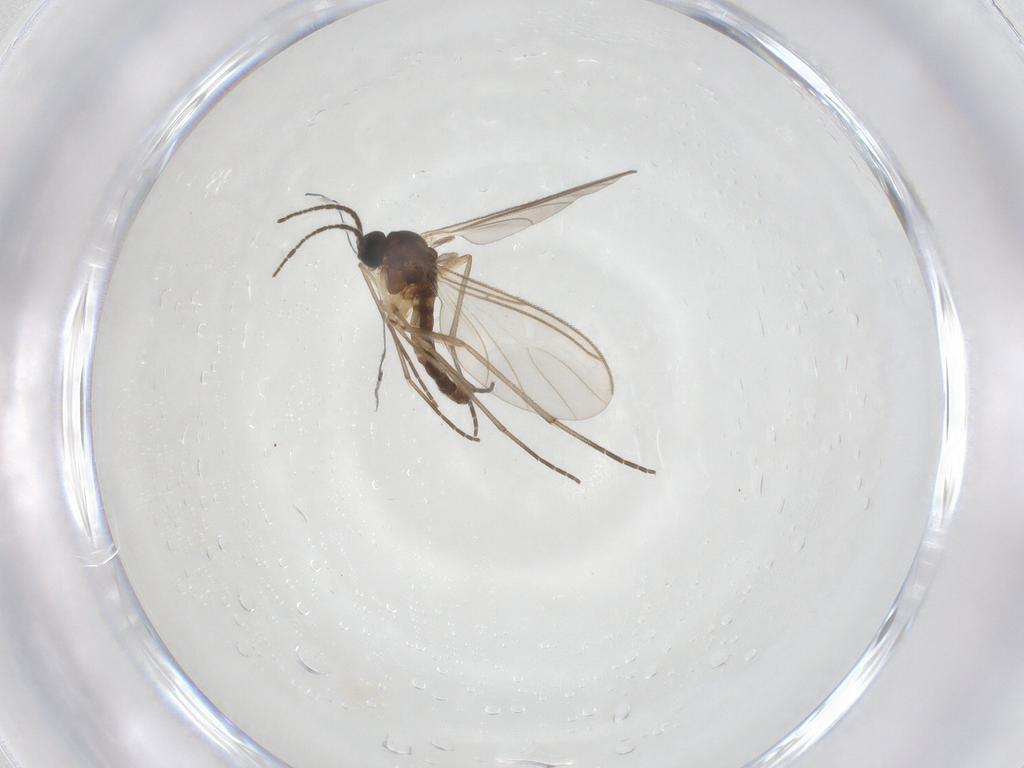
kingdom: Animalia
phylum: Arthropoda
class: Insecta
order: Diptera
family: Sciaridae
